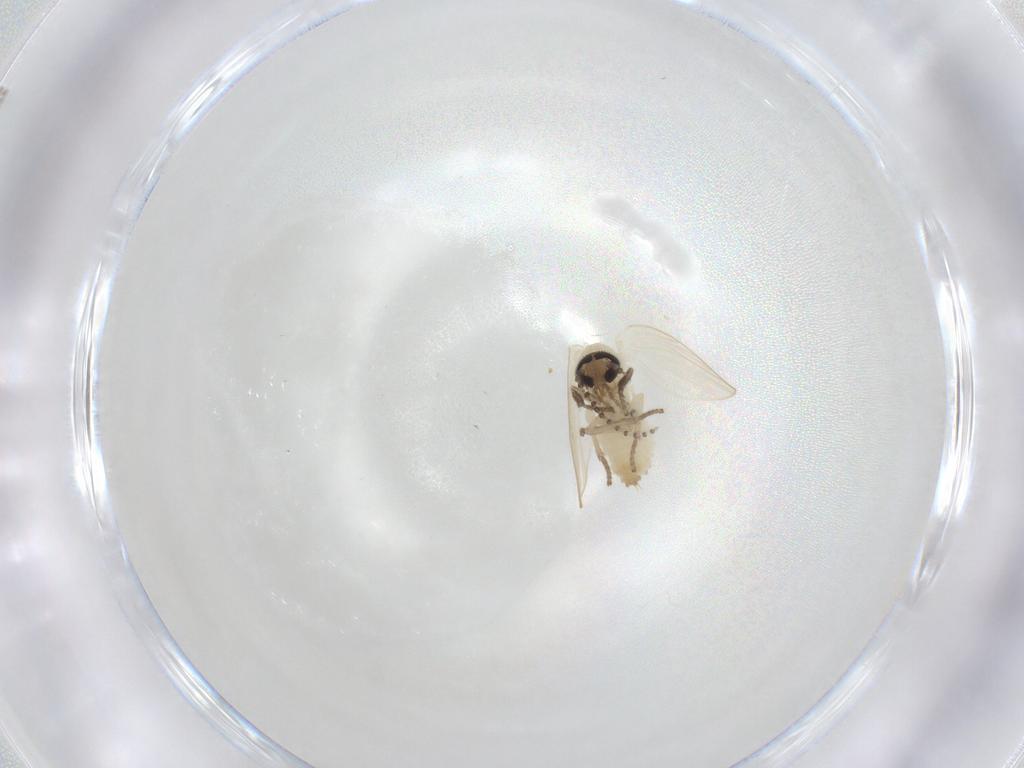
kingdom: Animalia
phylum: Arthropoda
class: Insecta
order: Diptera
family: Psychodidae
